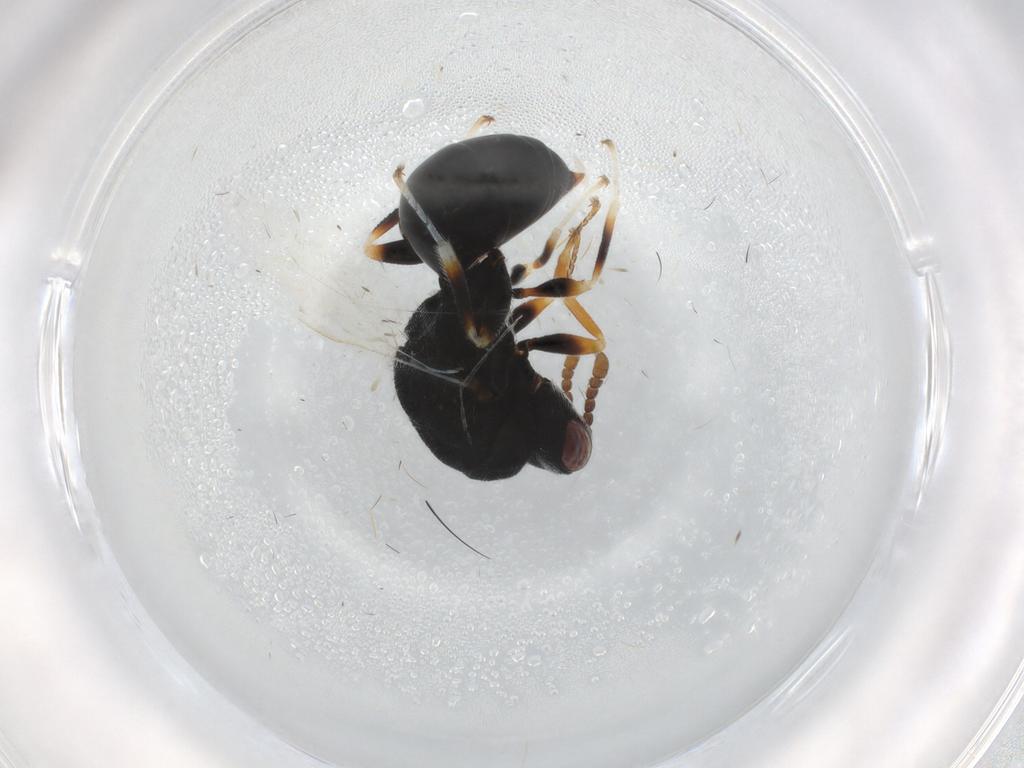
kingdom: Animalia
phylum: Arthropoda
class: Insecta
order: Hymenoptera
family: Eurytomidae
